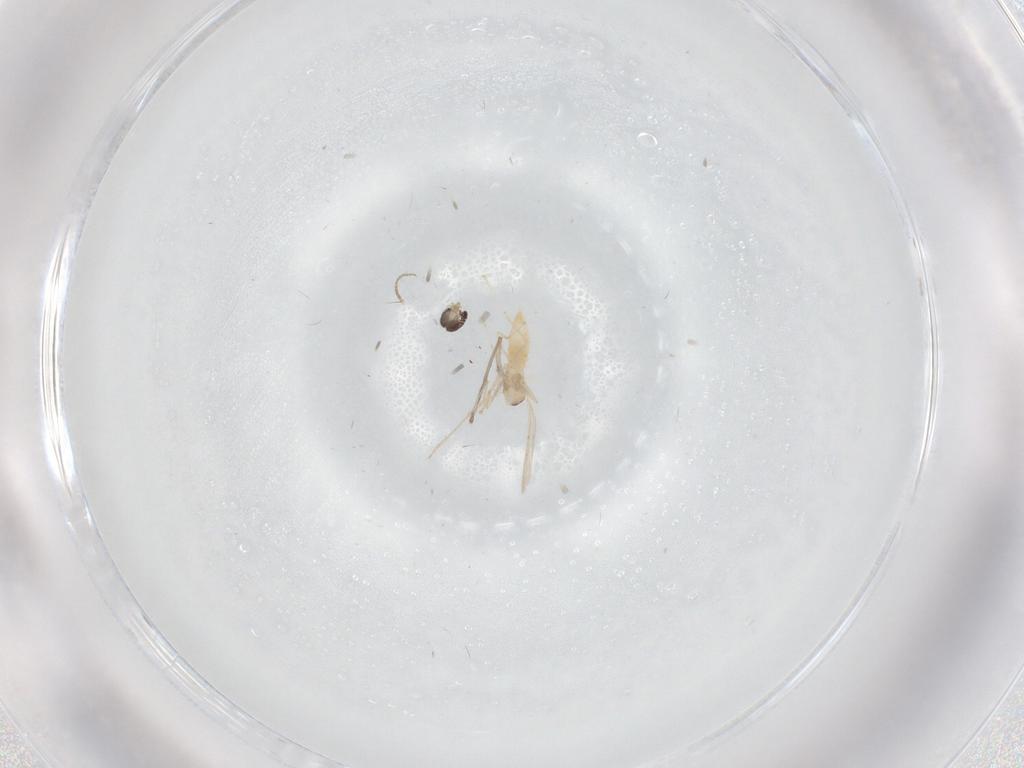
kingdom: Animalia
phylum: Arthropoda
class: Insecta
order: Diptera
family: Cecidomyiidae
